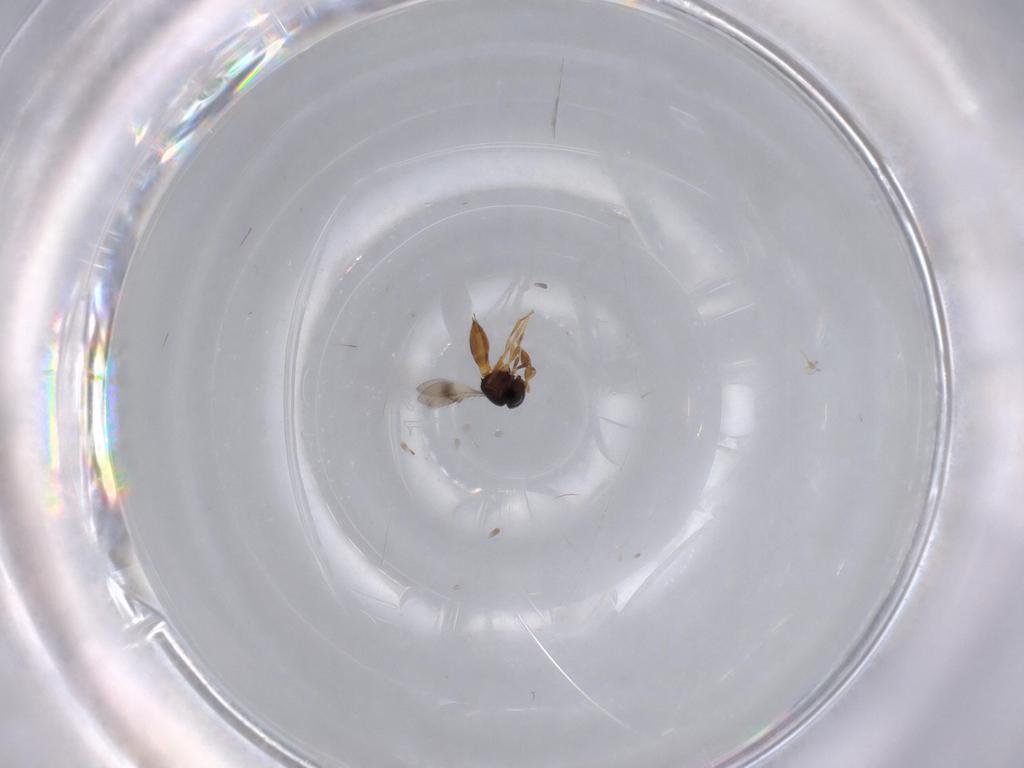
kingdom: Animalia
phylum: Arthropoda
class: Insecta
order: Hymenoptera
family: Scelionidae
